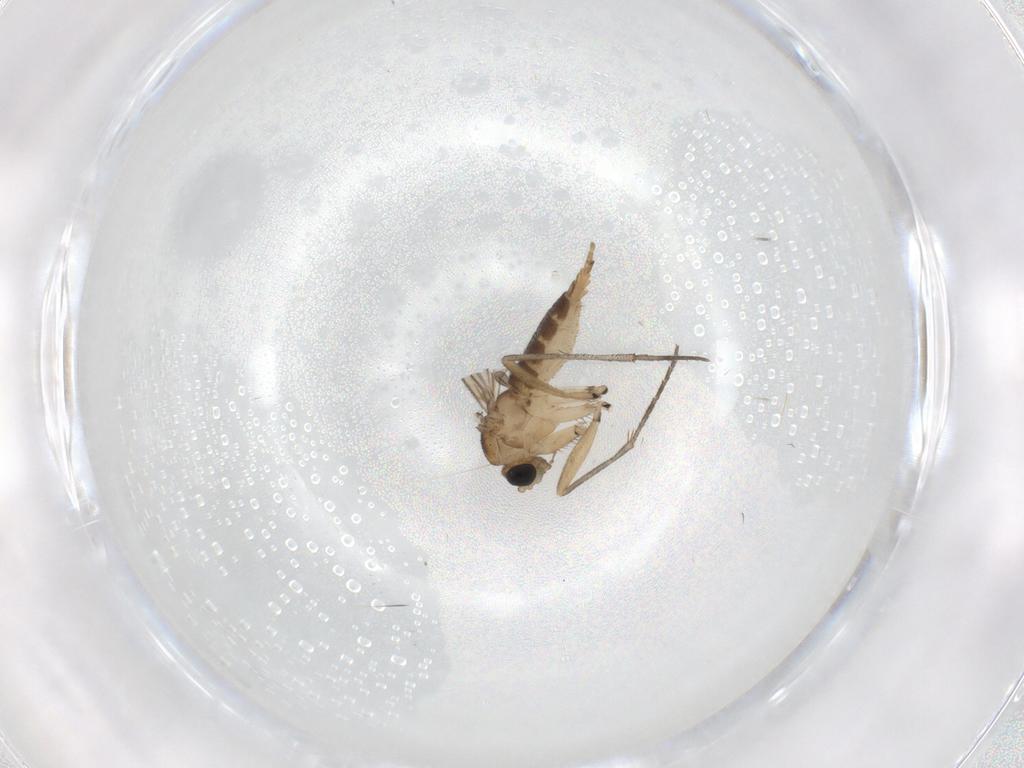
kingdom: Animalia
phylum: Arthropoda
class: Insecta
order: Diptera
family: Sciaridae
